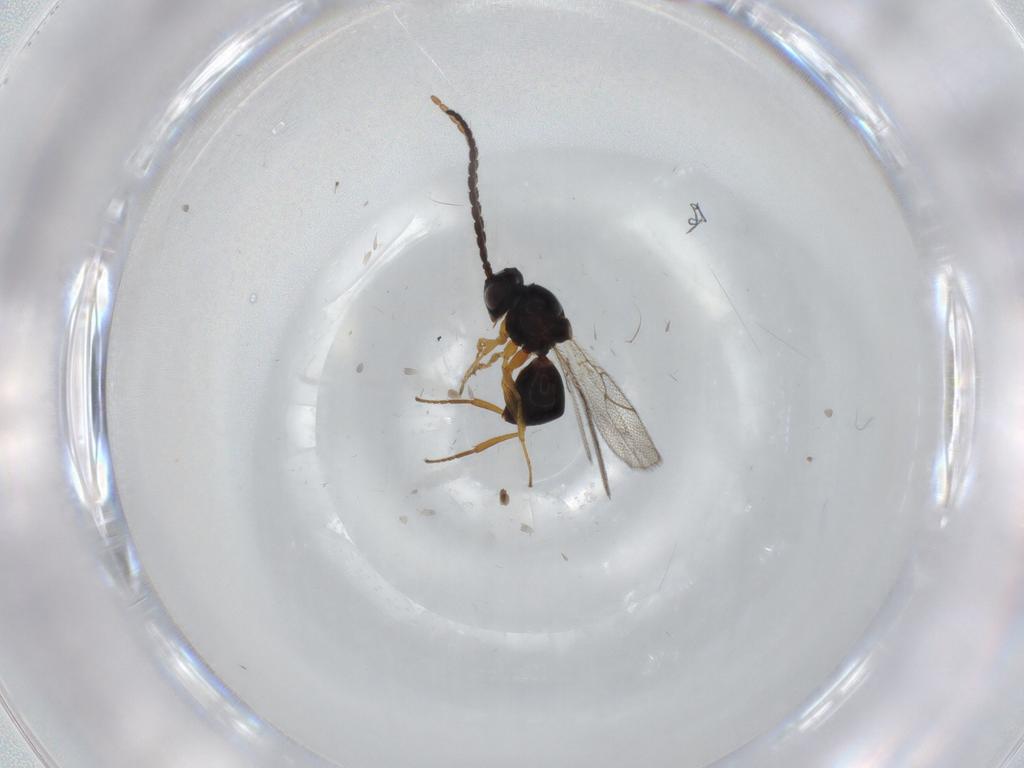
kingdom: Animalia
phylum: Arthropoda
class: Insecta
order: Hymenoptera
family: Figitidae
